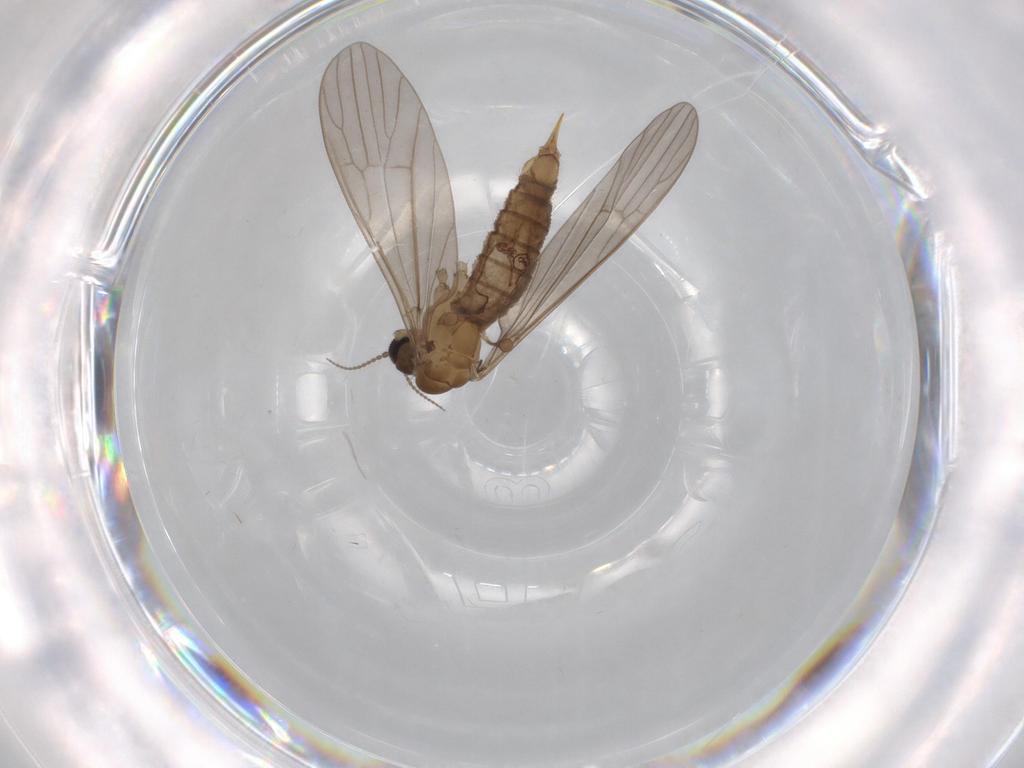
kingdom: Animalia
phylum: Arthropoda
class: Insecta
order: Diptera
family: Limoniidae
